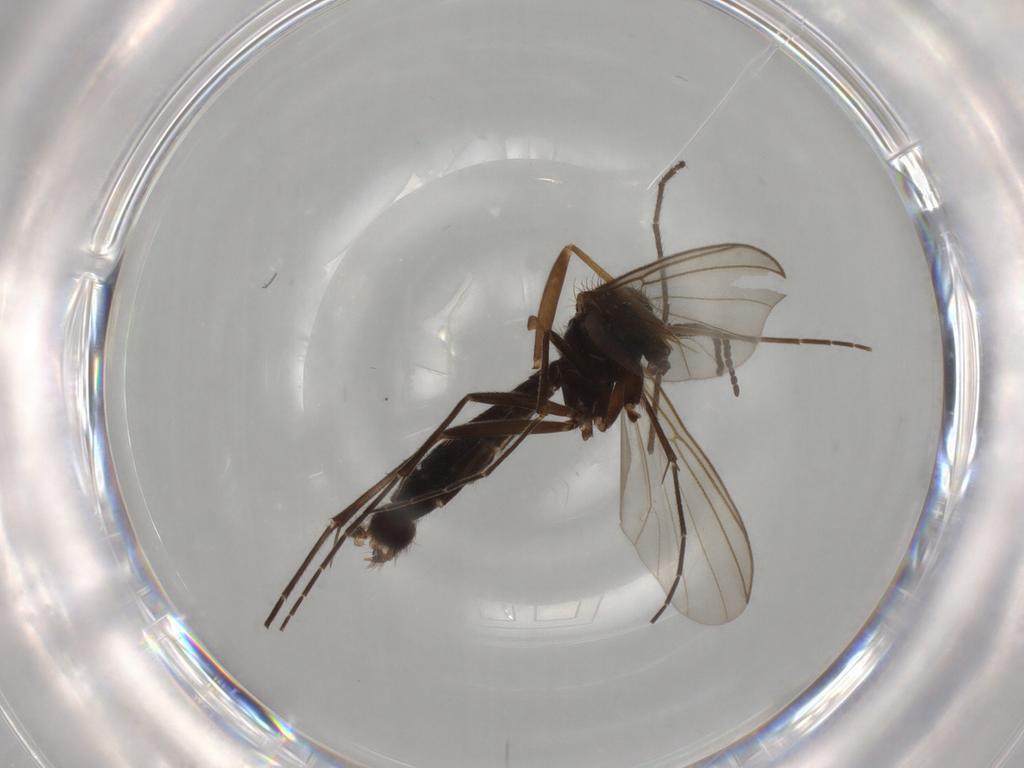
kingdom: Animalia
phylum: Arthropoda
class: Insecta
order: Diptera
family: Mycetophilidae
